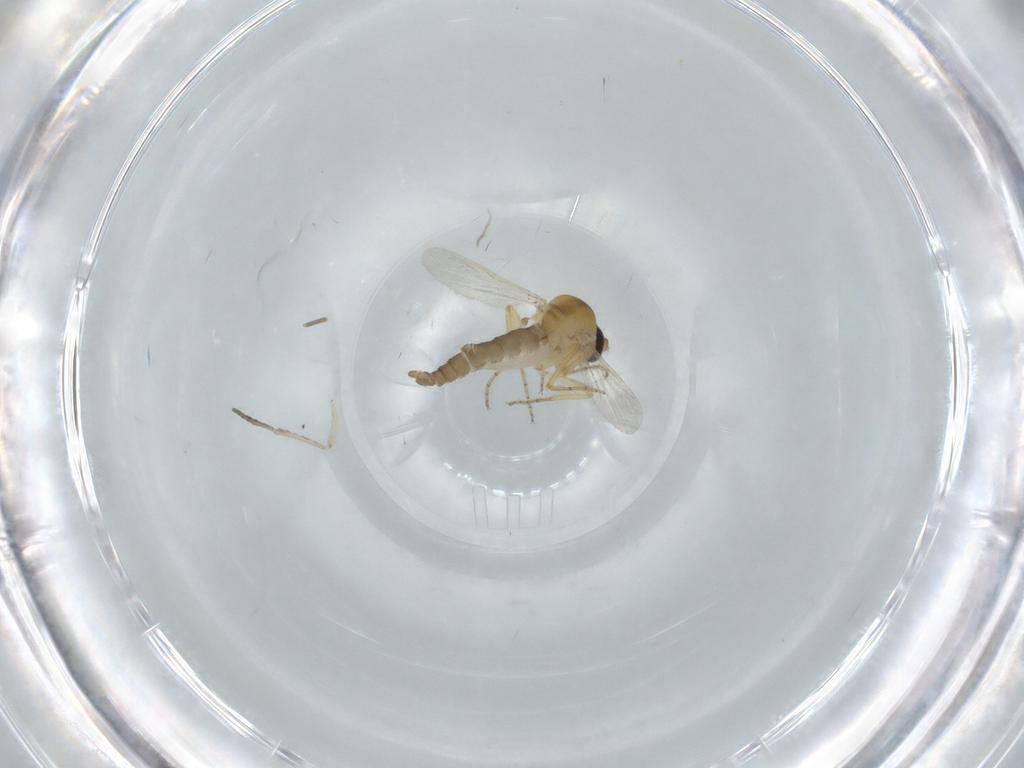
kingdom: Animalia
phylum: Arthropoda
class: Insecta
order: Diptera
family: Ceratopogonidae
